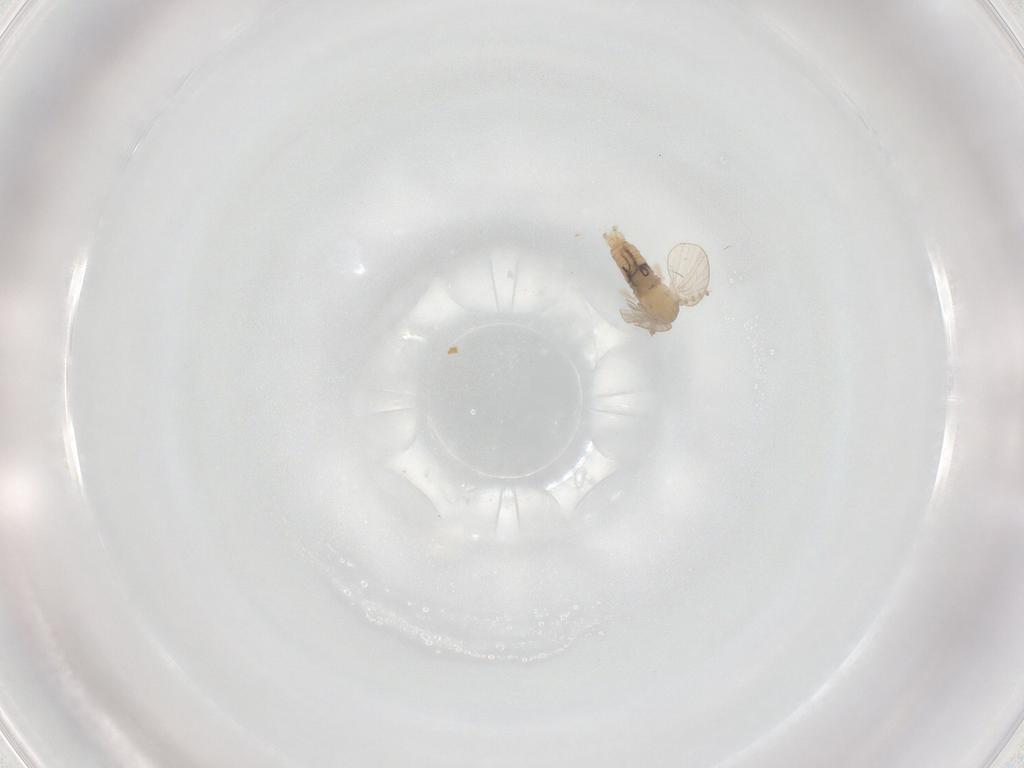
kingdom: Animalia
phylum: Arthropoda
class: Insecta
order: Diptera
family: Psychodidae
